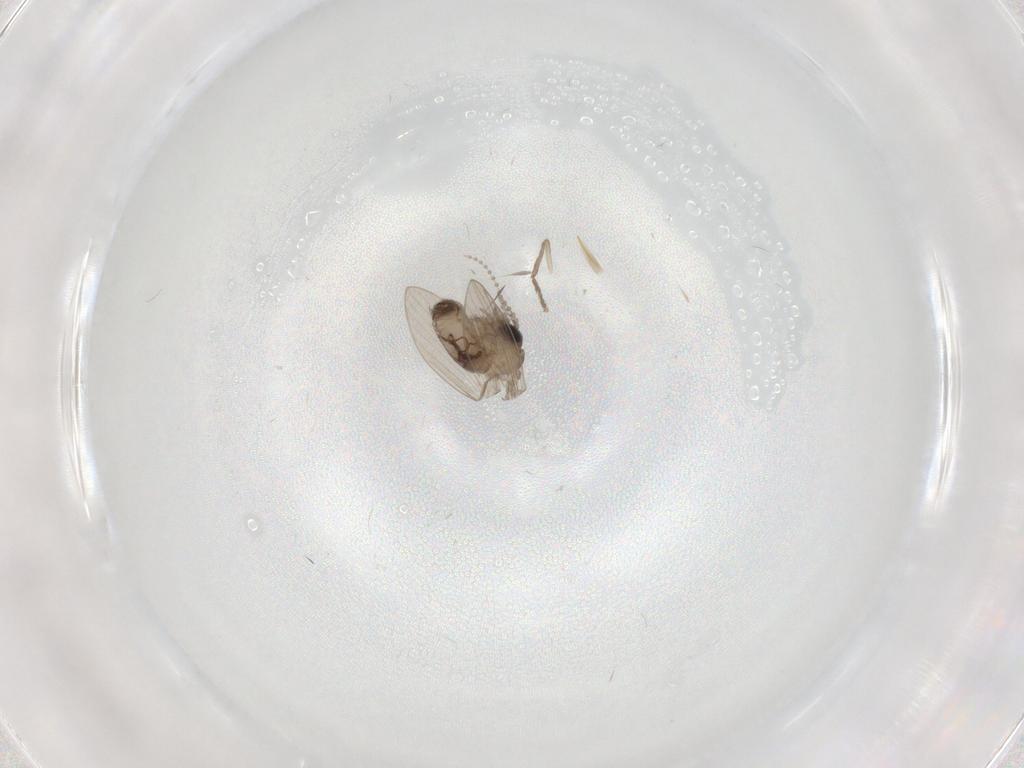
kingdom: Animalia
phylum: Arthropoda
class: Insecta
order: Diptera
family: Psychodidae
